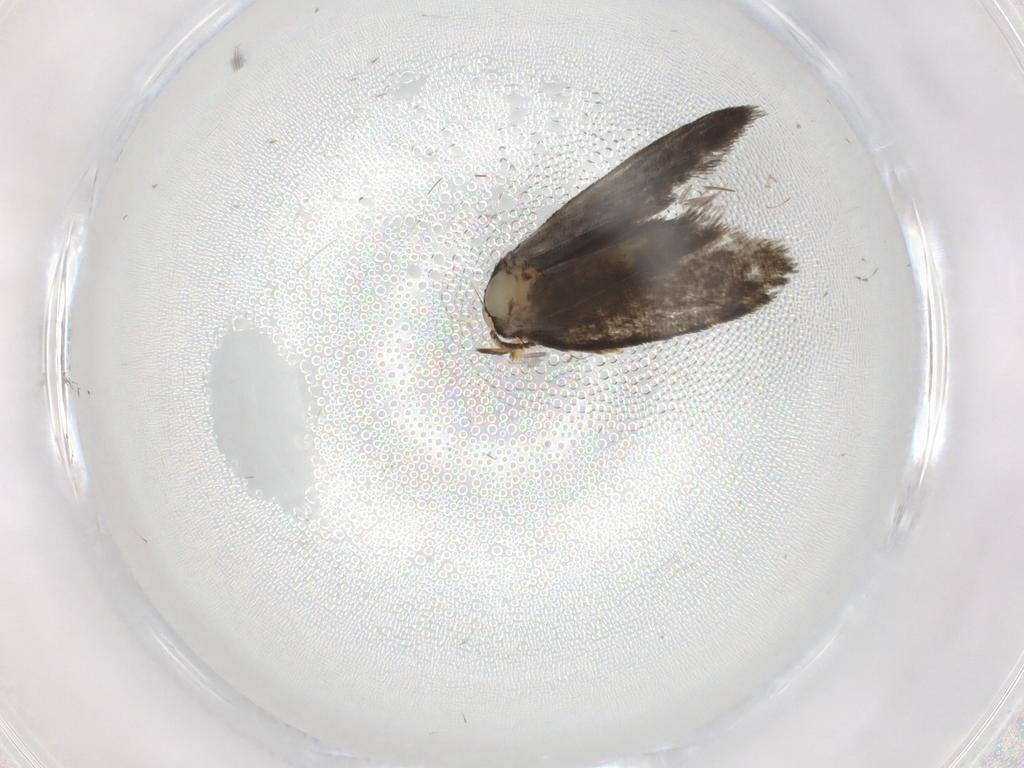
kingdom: Animalia
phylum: Arthropoda
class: Insecta
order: Lepidoptera
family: Psychidae
